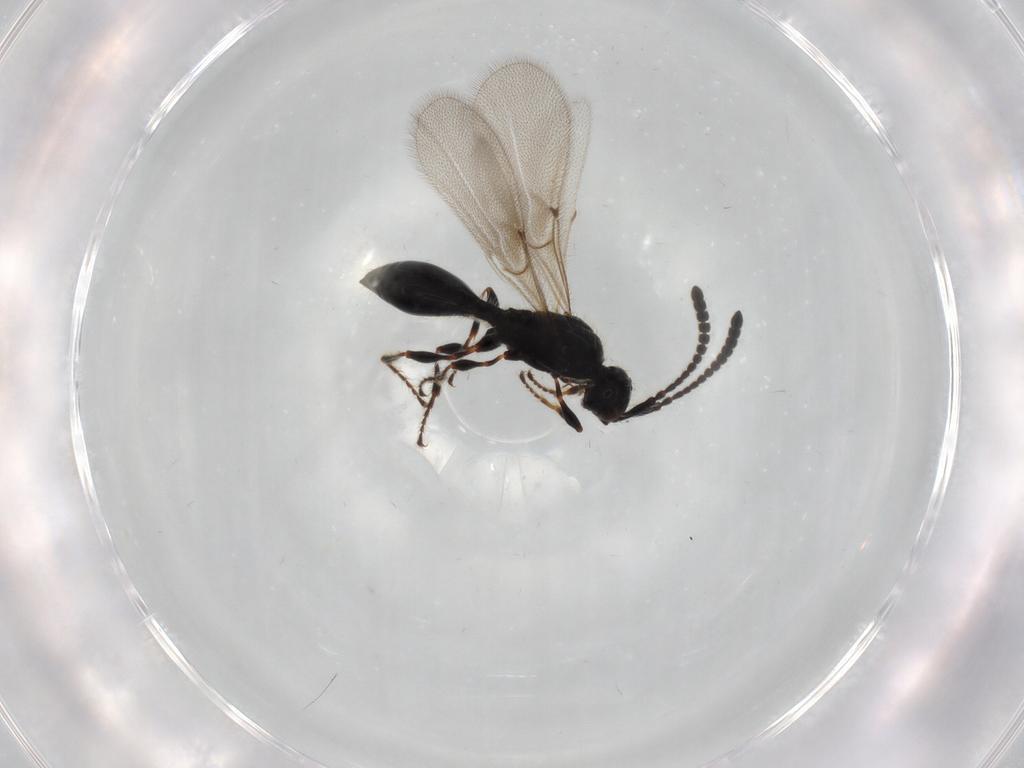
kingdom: Animalia
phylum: Arthropoda
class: Insecta
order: Hymenoptera
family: Diapriidae
